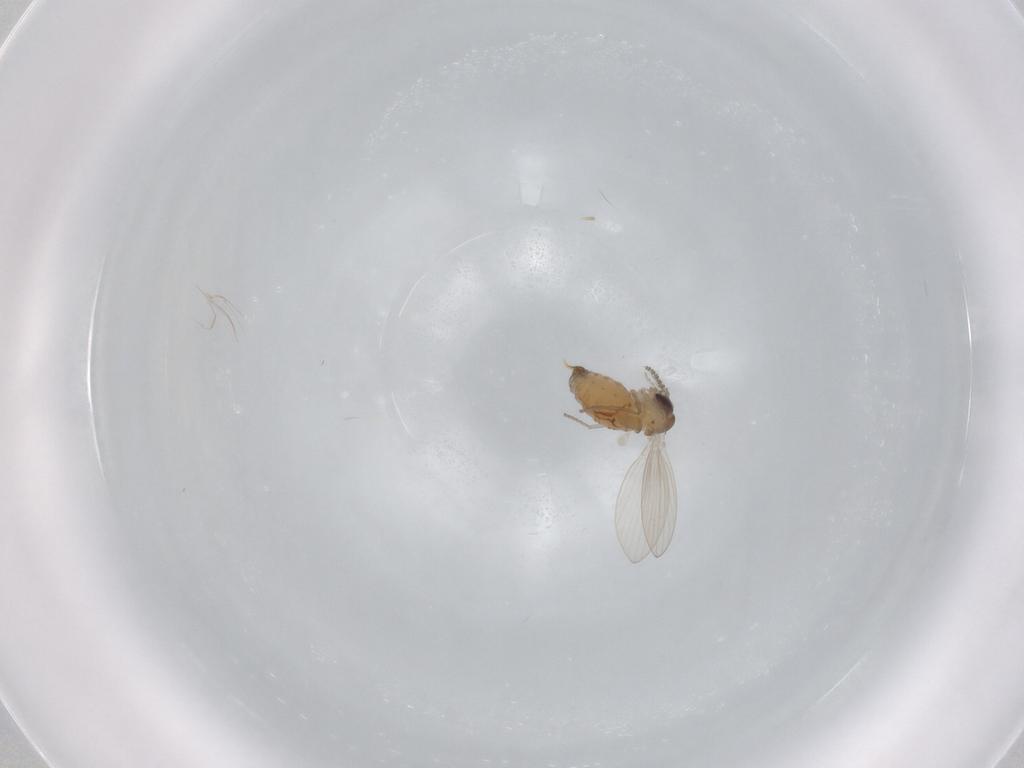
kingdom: Animalia
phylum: Arthropoda
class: Insecta
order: Diptera
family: Psychodidae
